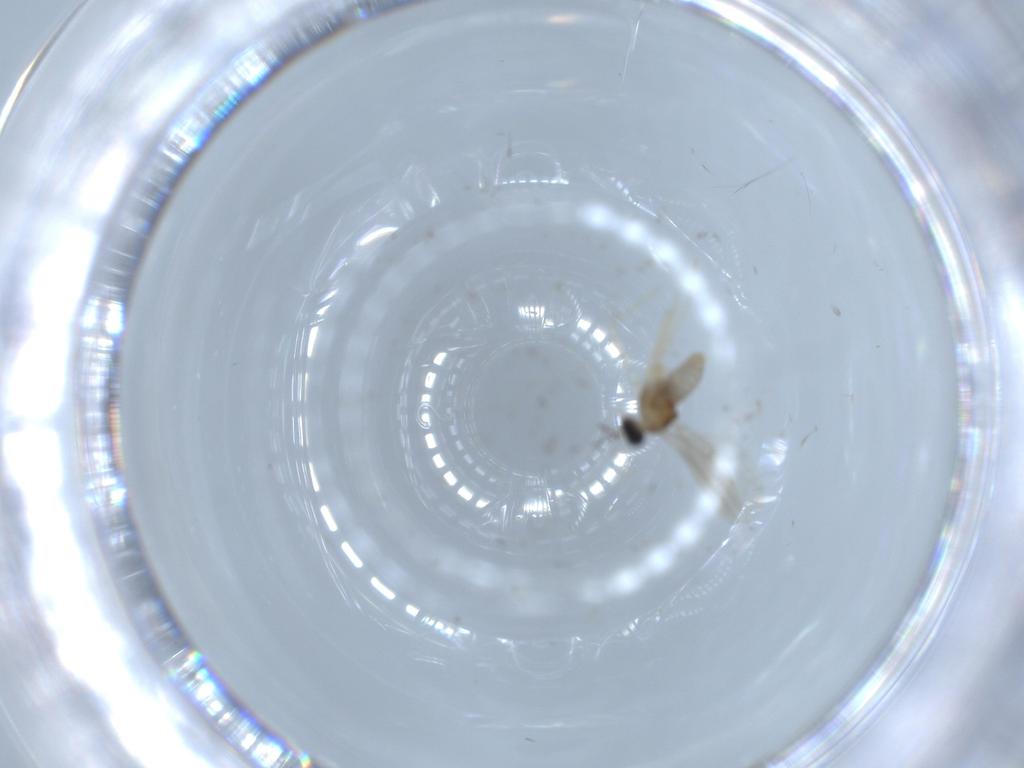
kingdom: Animalia
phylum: Arthropoda
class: Insecta
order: Diptera
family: Cecidomyiidae
